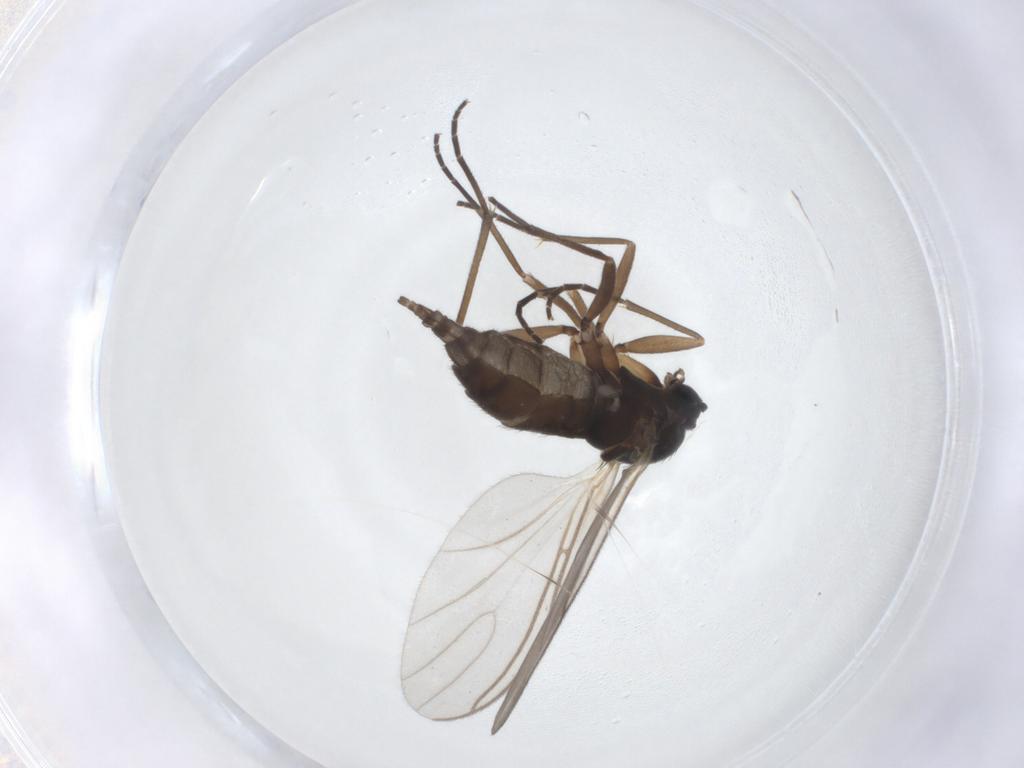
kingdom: Animalia
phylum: Arthropoda
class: Insecta
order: Diptera
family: Sciaridae
